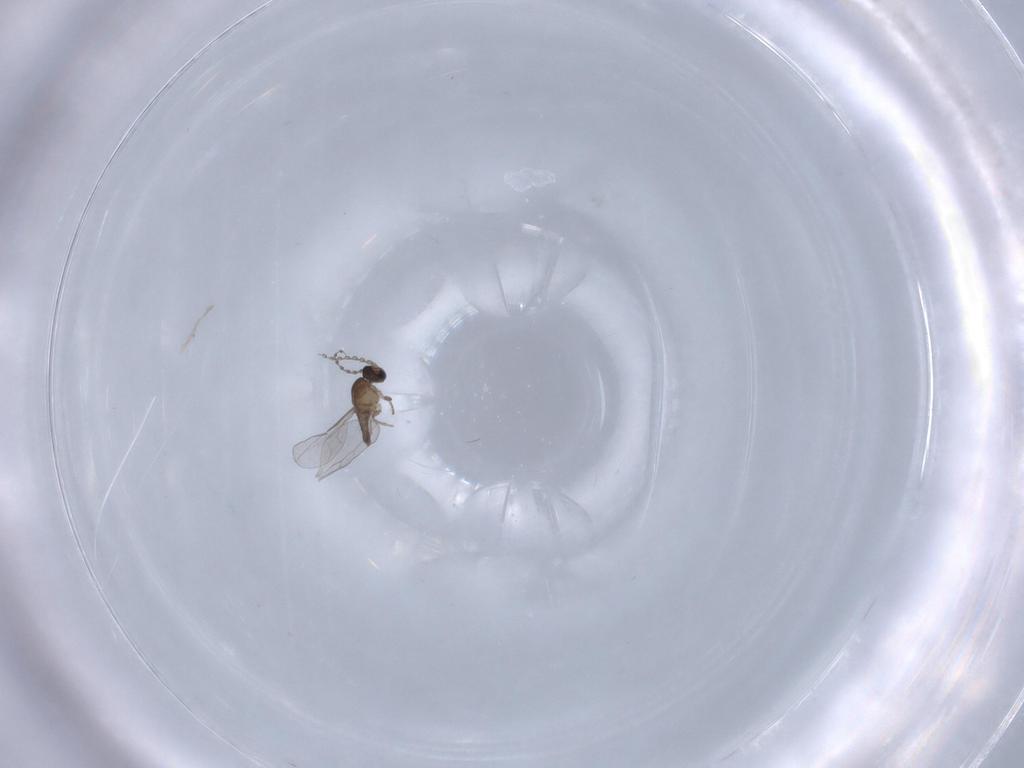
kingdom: Animalia
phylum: Arthropoda
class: Insecta
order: Diptera
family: Cecidomyiidae
